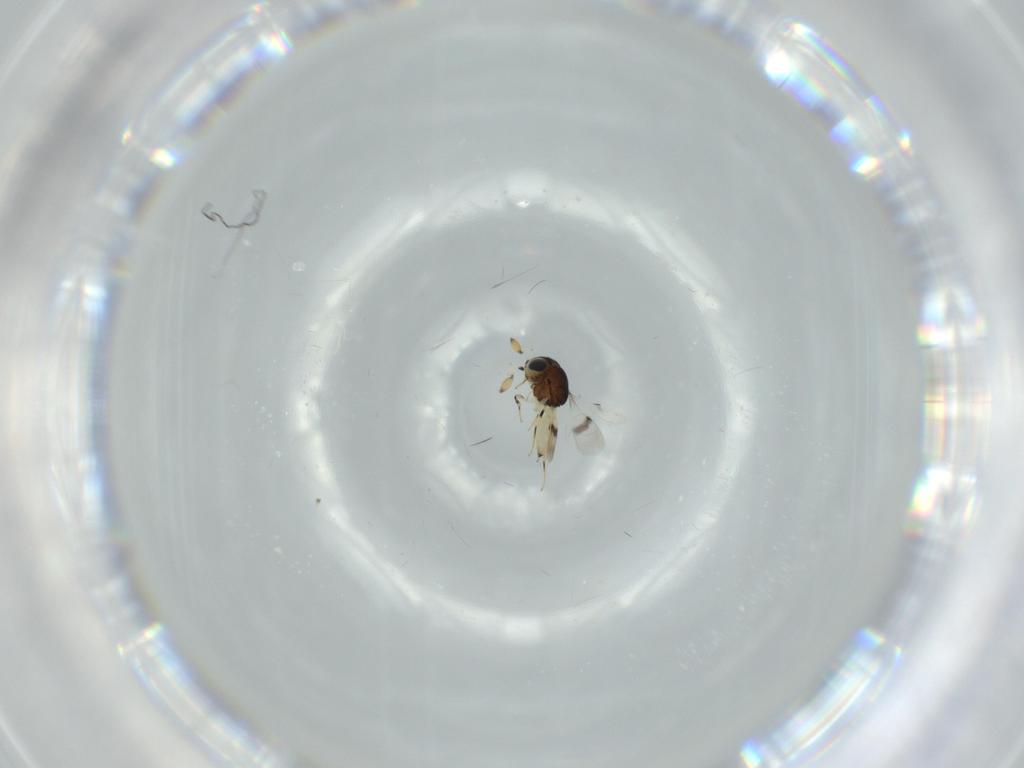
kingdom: Animalia
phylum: Arthropoda
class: Insecta
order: Hymenoptera
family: Scelionidae
